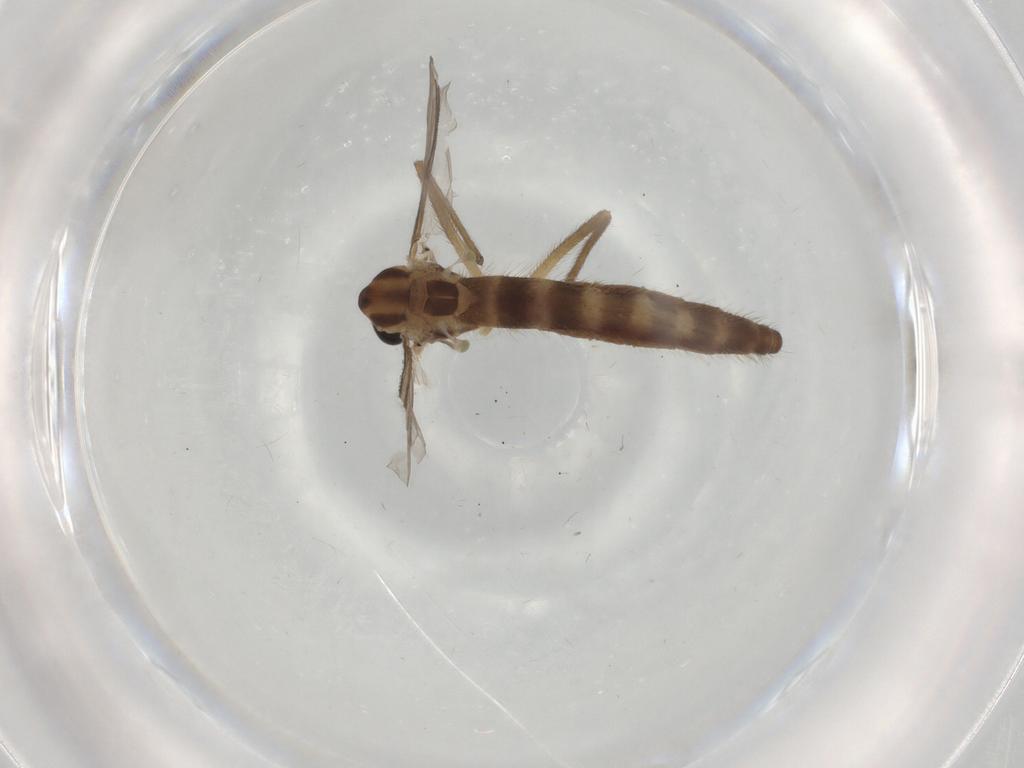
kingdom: Animalia
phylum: Arthropoda
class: Insecta
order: Diptera
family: Chironomidae
